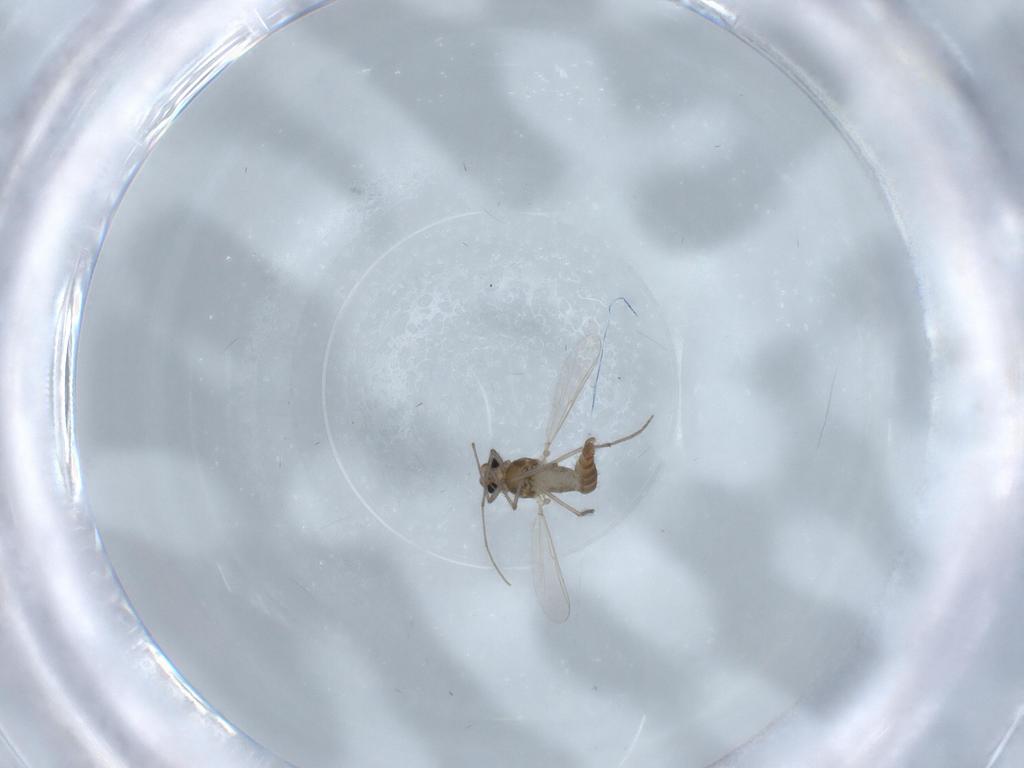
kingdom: Animalia
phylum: Arthropoda
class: Insecta
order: Diptera
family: Chironomidae
